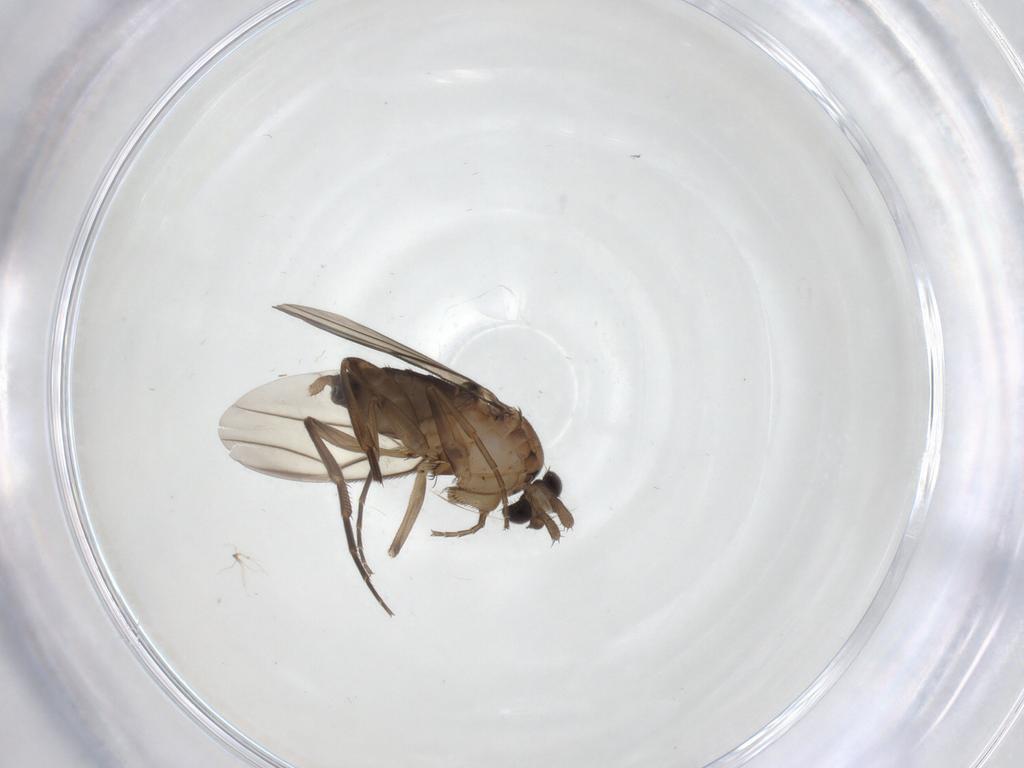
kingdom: Animalia
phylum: Arthropoda
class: Insecta
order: Diptera
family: Phoridae
